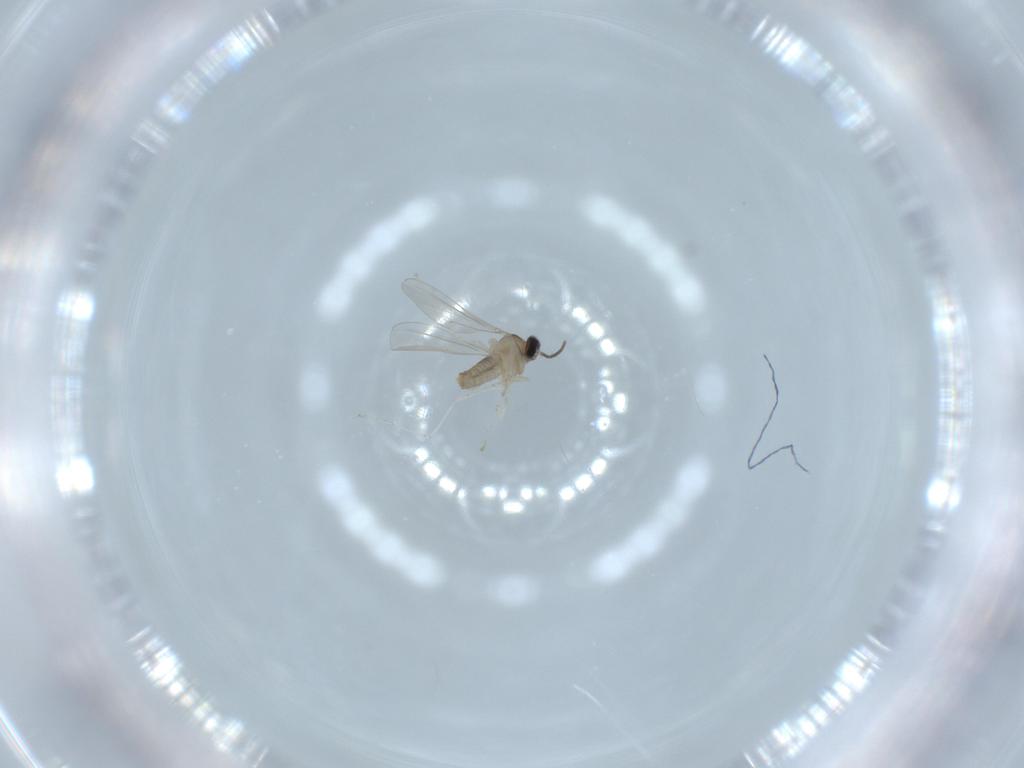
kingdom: Animalia
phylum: Arthropoda
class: Insecta
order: Diptera
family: Cecidomyiidae
